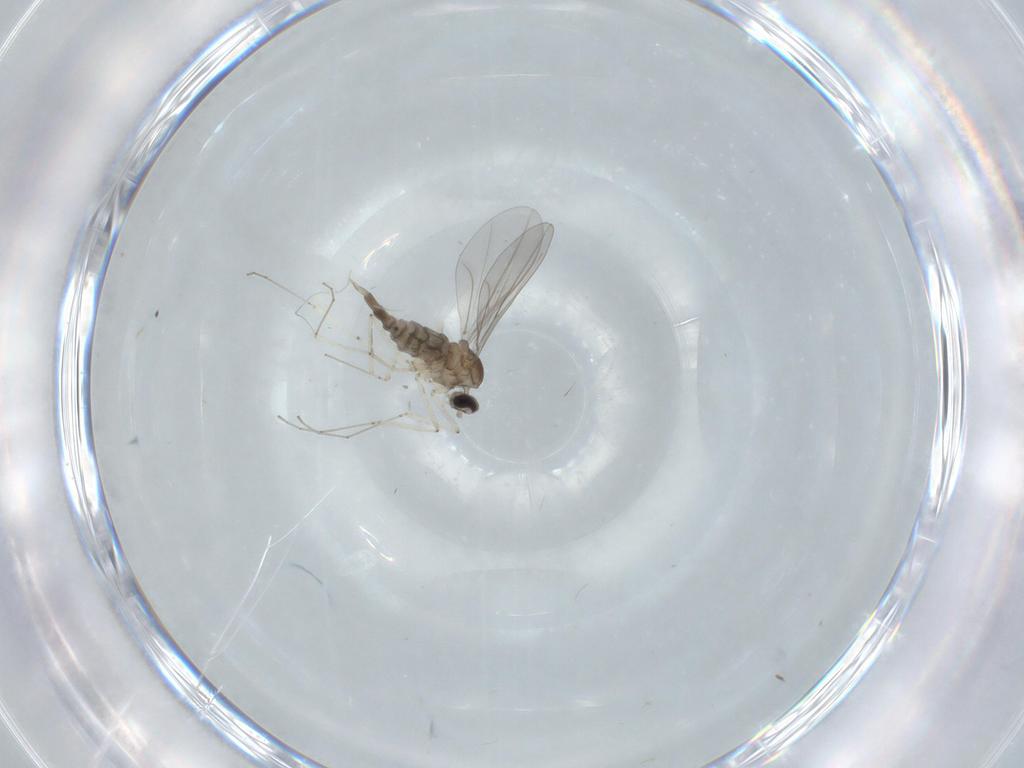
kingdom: Animalia
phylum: Arthropoda
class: Insecta
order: Diptera
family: Cecidomyiidae
